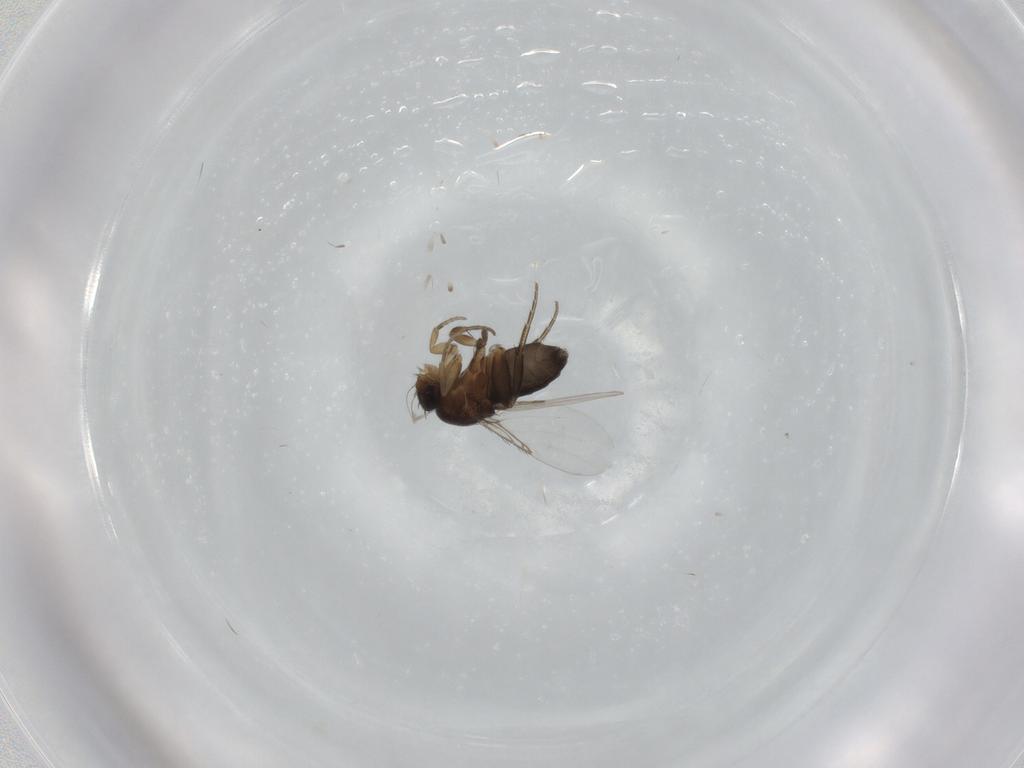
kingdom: Animalia
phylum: Arthropoda
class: Insecta
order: Diptera
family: Phoridae
